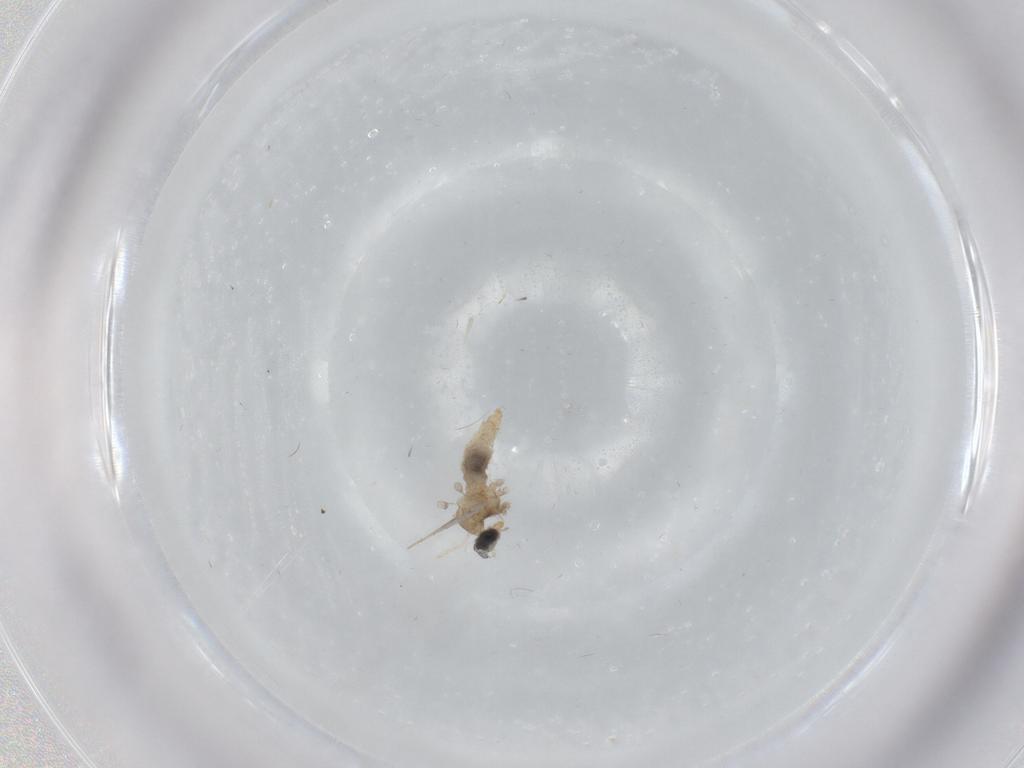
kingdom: Animalia
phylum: Arthropoda
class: Insecta
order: Diptera
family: Cecidomyiidae
